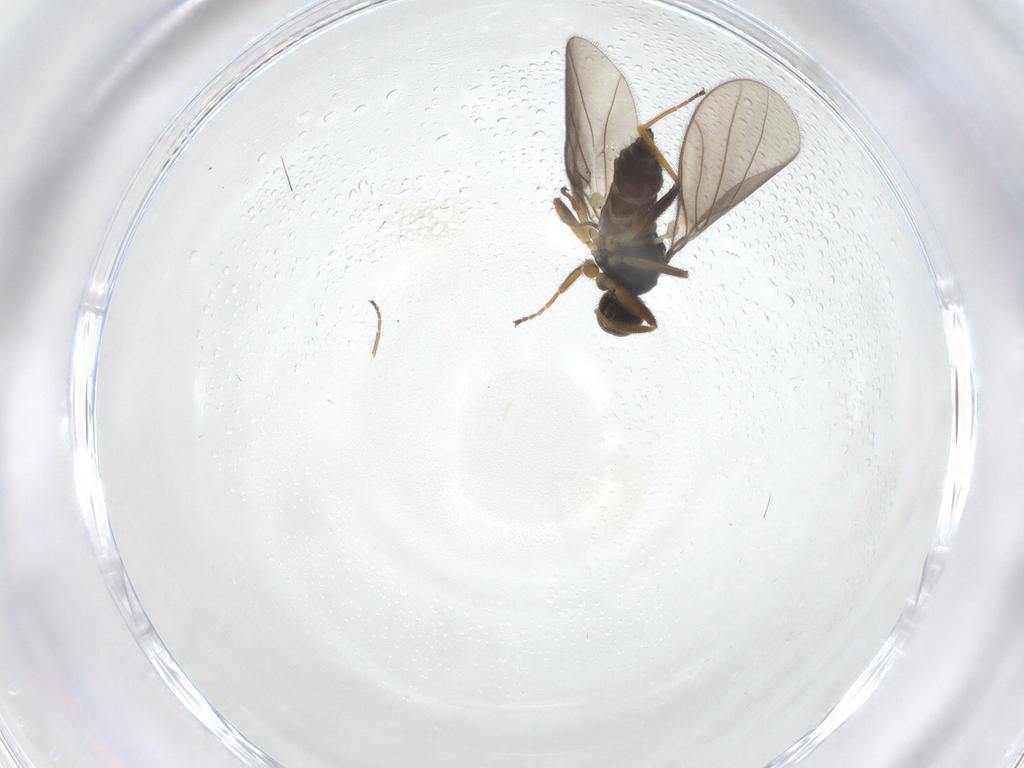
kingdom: Animalia
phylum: Arthropoda
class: Insecta
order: Diptera
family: Hybotidae
